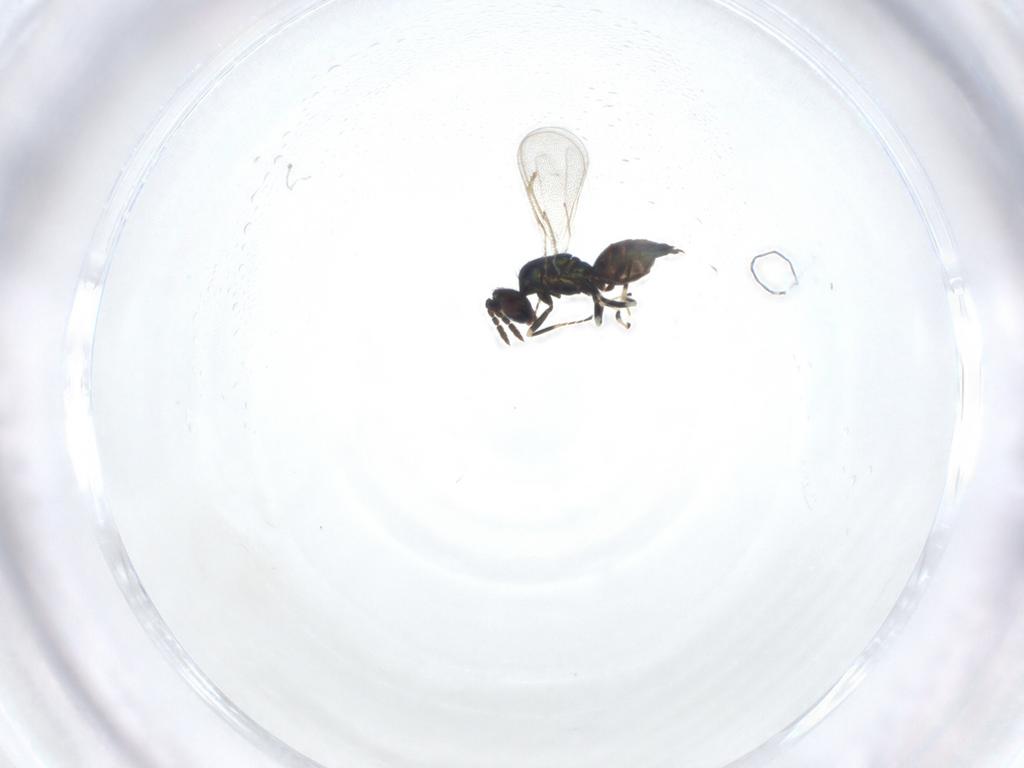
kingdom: Animalia
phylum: Arthropoda
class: Insecta
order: Hymenoptera
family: Eulophidae
